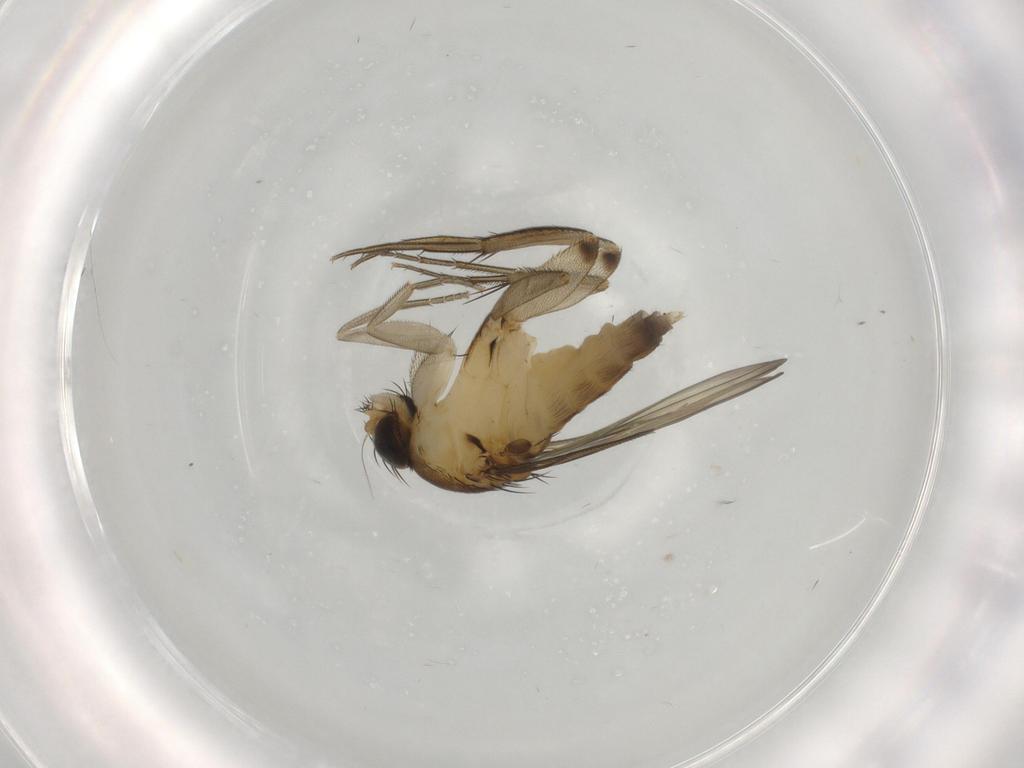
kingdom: Animalia
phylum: Arthropoda
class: Insecta
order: Diptera
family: Phoridae
